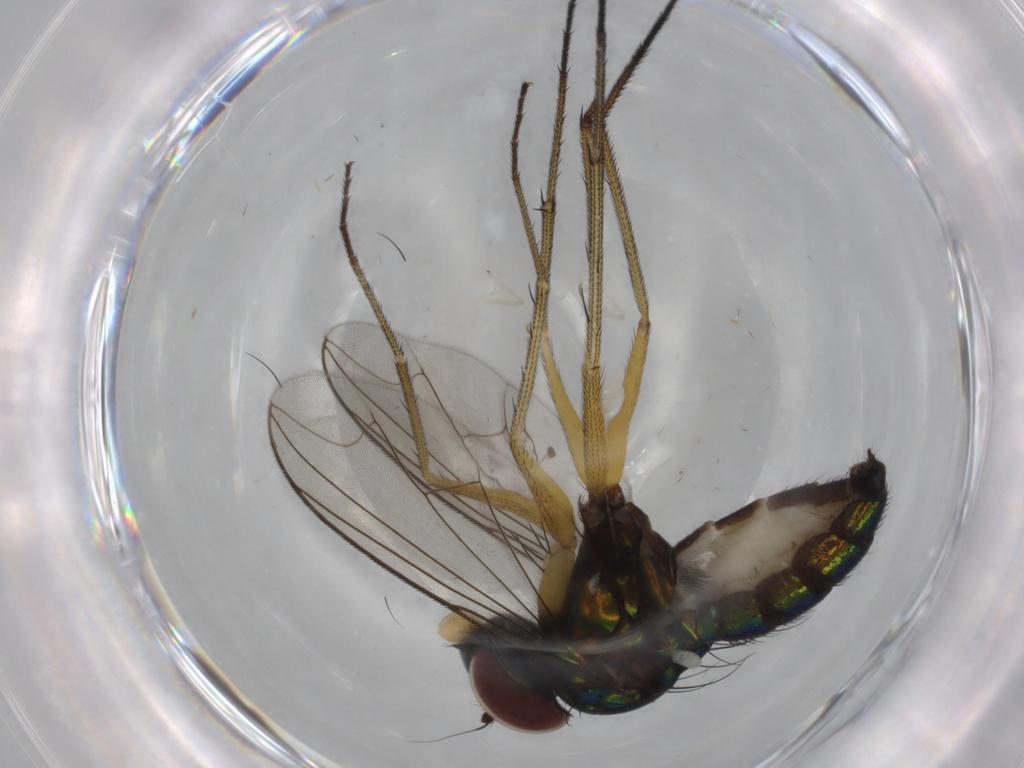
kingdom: Animalia
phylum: Arthropoda
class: Insecta
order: Diptera
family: Dolichopodidae
